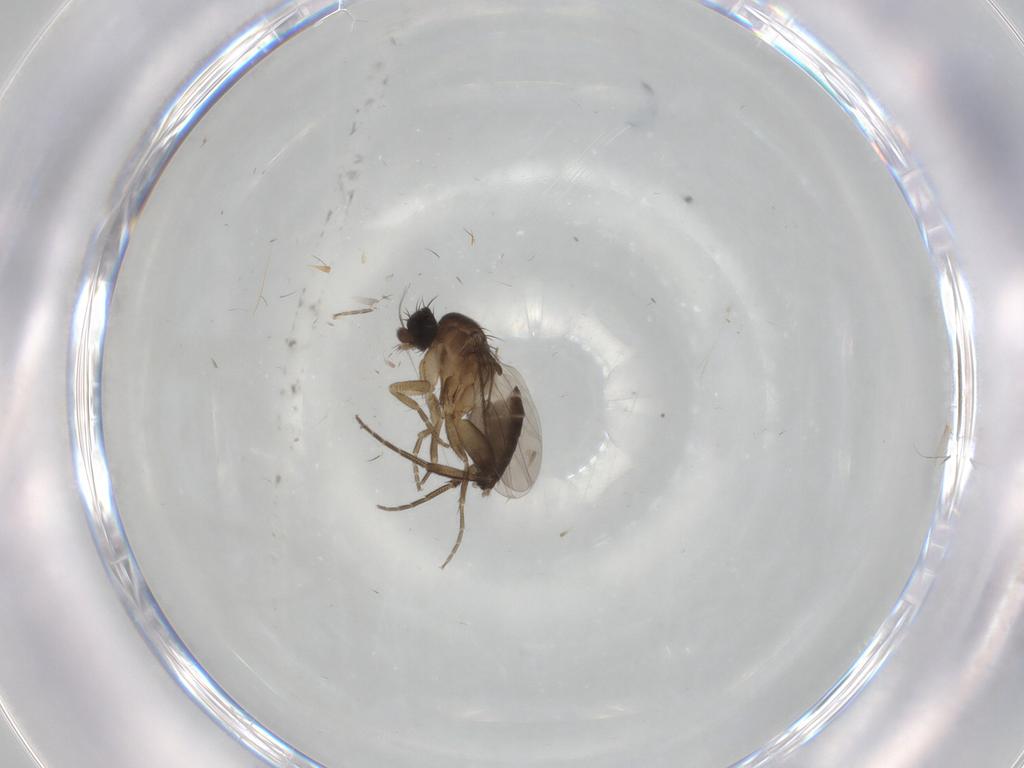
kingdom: Animalia
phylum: Arthropoda
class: Insecta
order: Diptera
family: Phoridae
